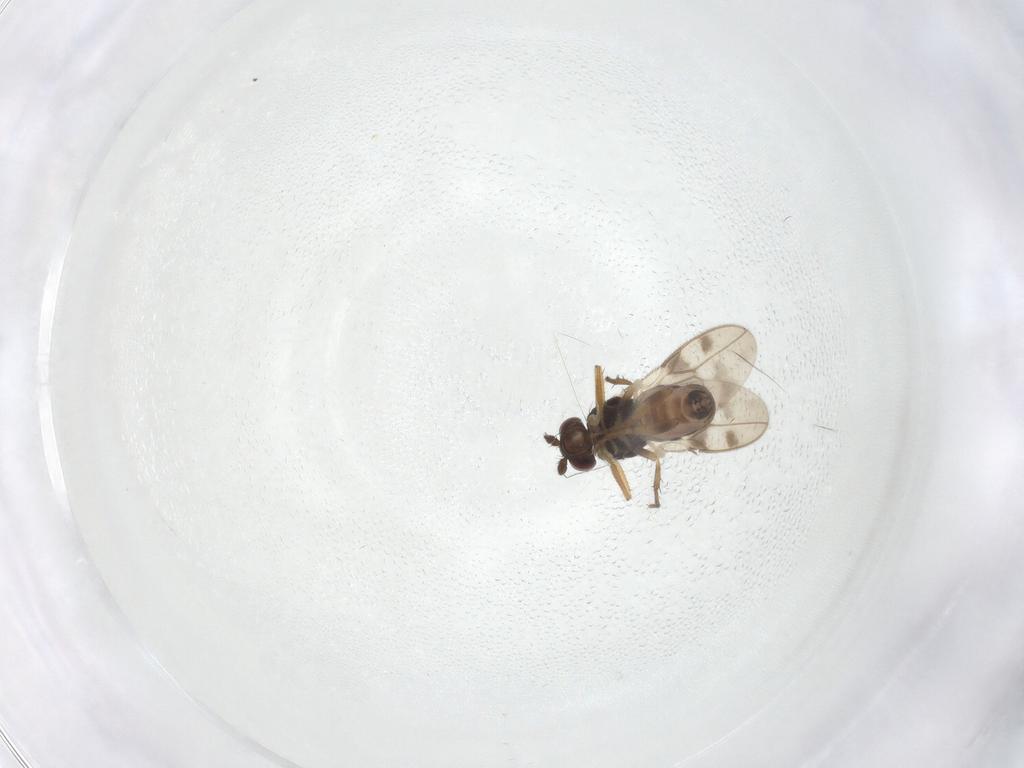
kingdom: Animalia
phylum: Arthropoda
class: Insecta
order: Diptera
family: Sphaeroceridae
